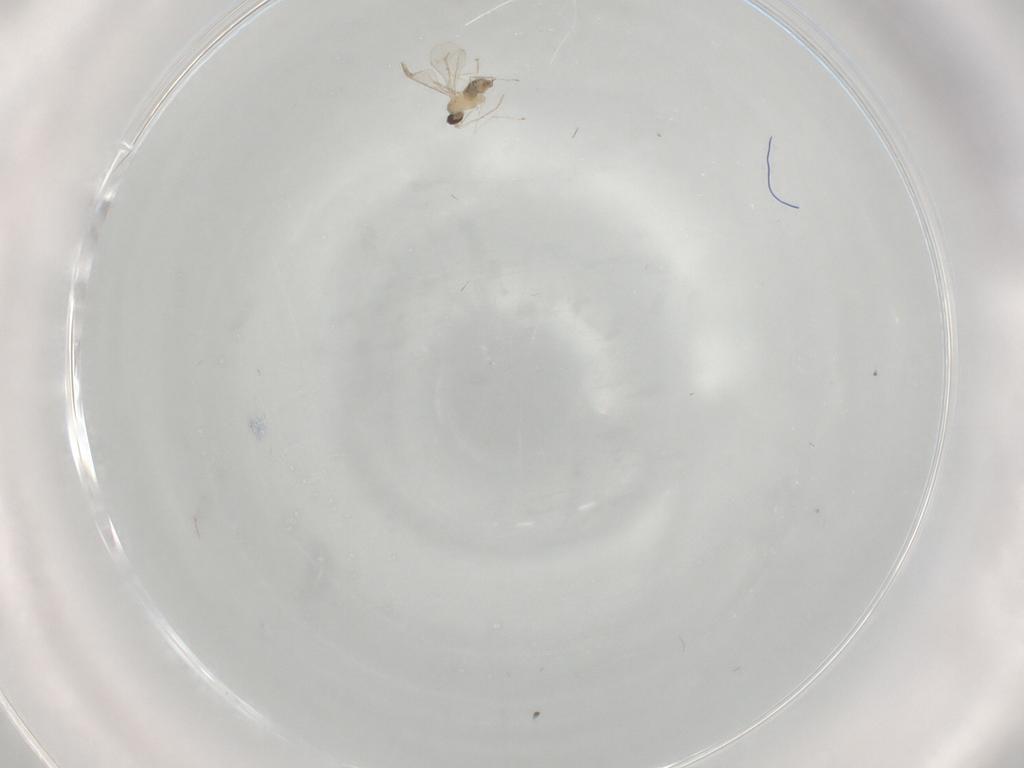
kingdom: Animalia
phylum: Arthropoda
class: Insecta
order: Diptera
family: Cecidomyiidae
